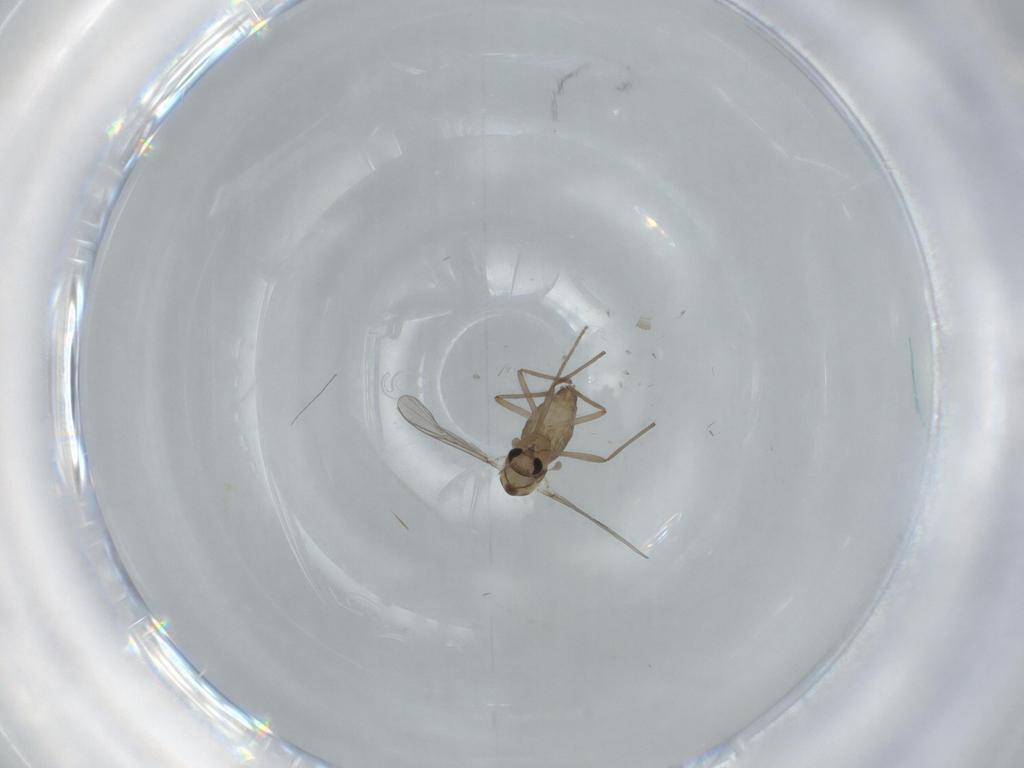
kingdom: Animalia
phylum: Arthropoda
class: Insecta
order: Diptera
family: Chironomidae
